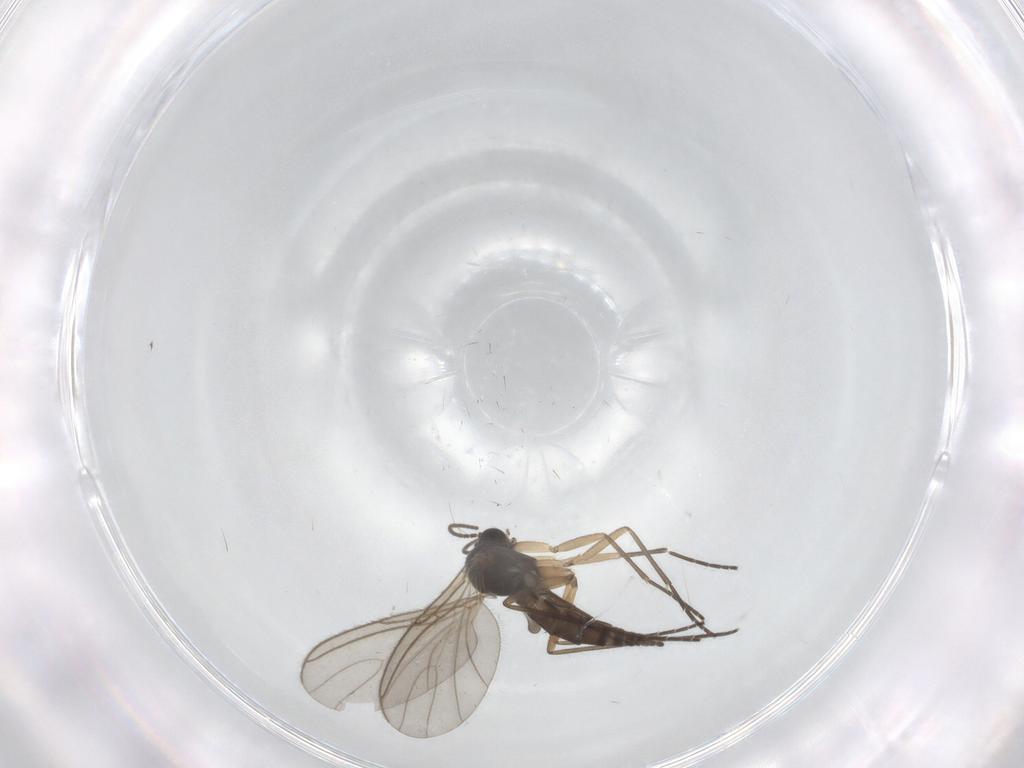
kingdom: Animalia
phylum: Arthropoda
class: Insecta
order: Diptera
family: Sciaridae
